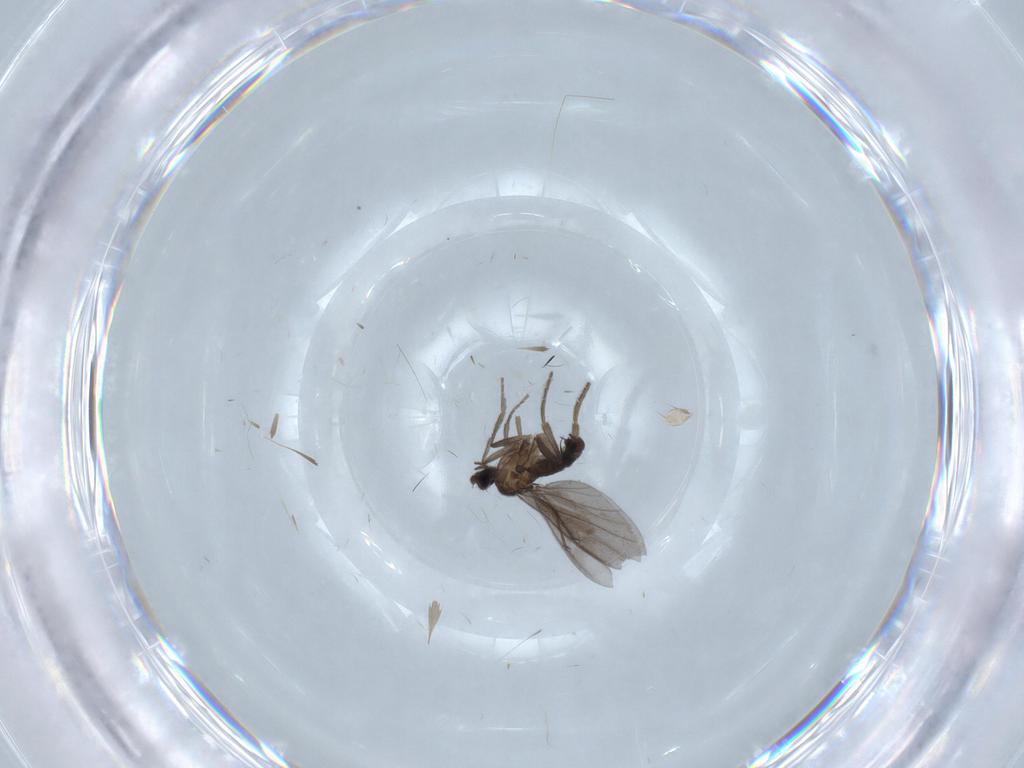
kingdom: Animalia
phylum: Arthropoda
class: Insecta
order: Diptera
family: Phoridae
